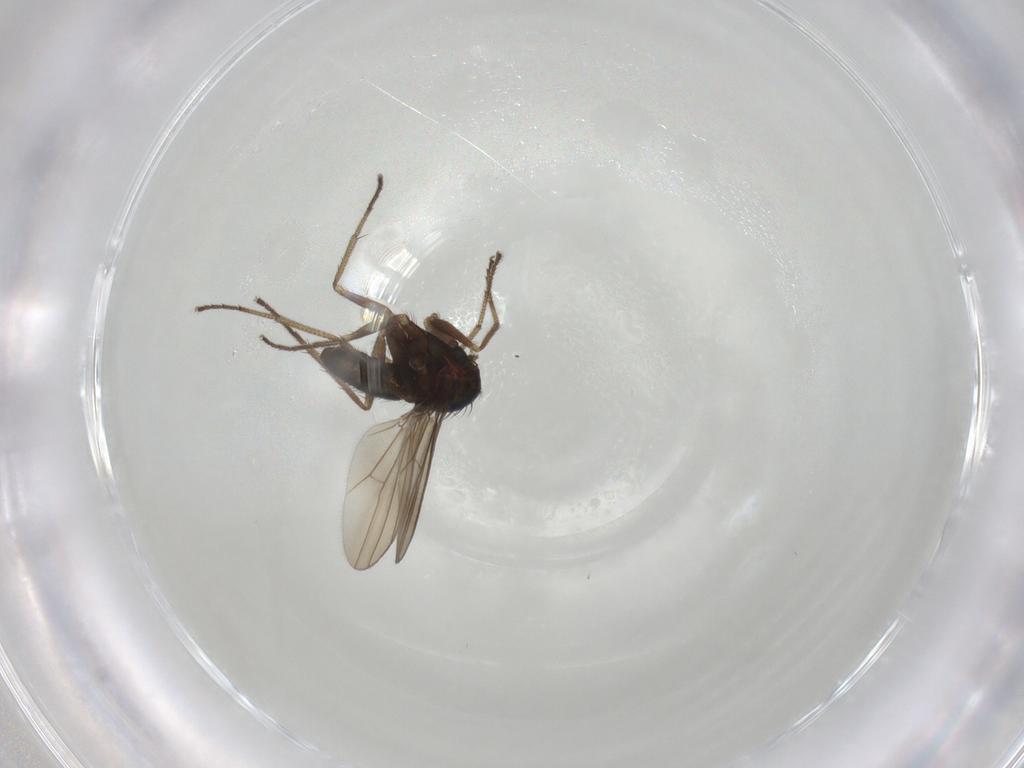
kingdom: Animalia
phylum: Arthropoda
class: Insecta
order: Diptera
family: Dolichopodidae
